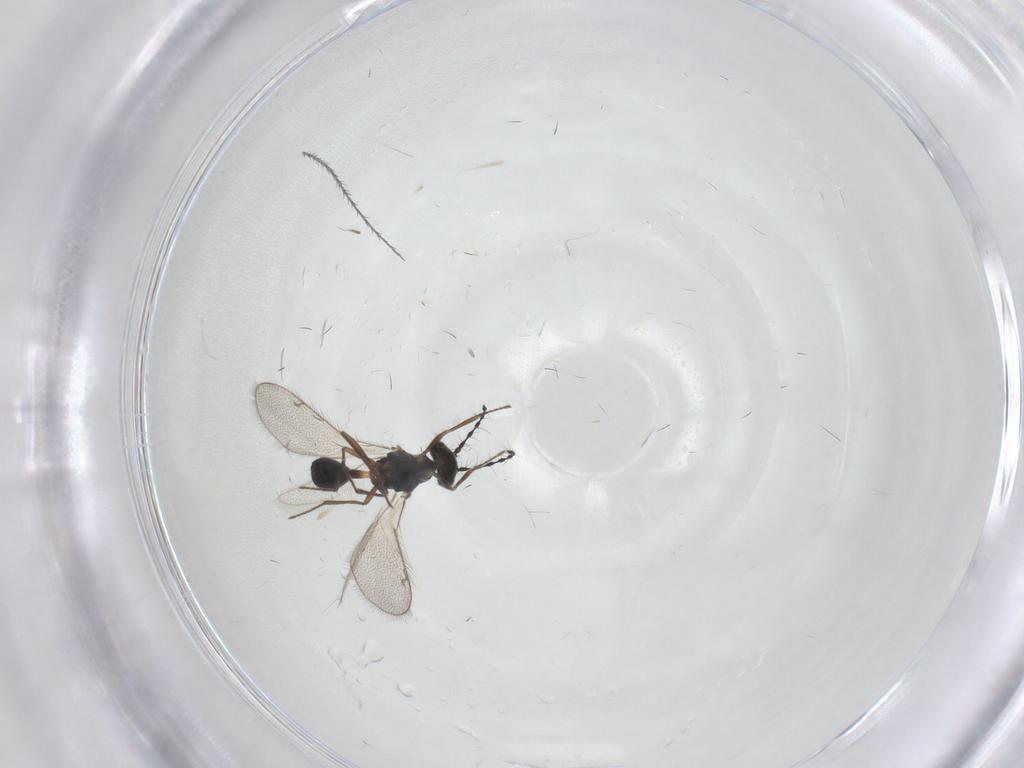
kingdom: Animalia
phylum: Arthropoda
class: Insecta
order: Hymenoptera
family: Diparidae
